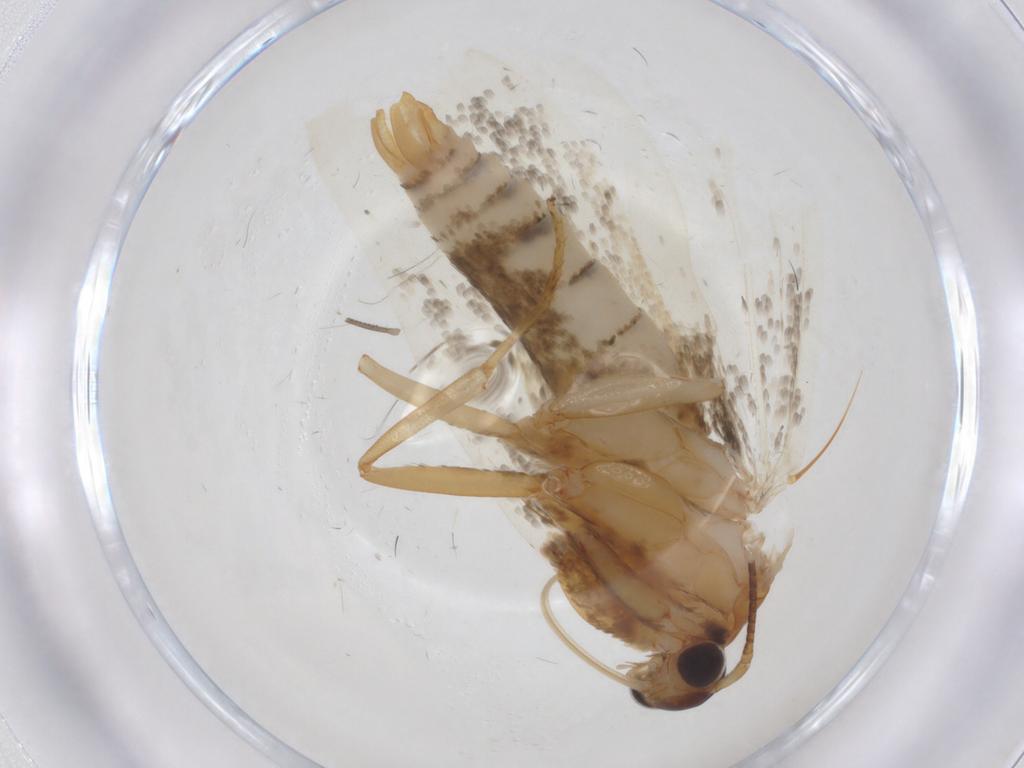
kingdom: Animalia
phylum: Arthropoda
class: Insecta
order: Lepidoptera
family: Oecophoridae
